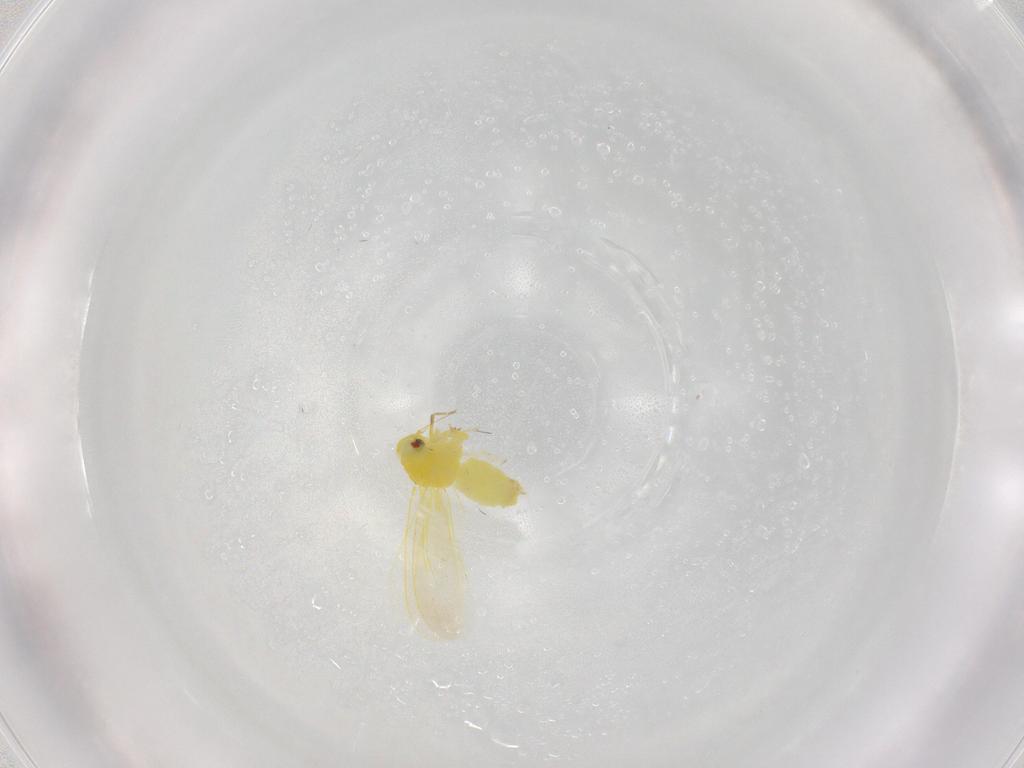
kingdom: Animalia
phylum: Arthropoda
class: Insecta
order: Hemiptera
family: Aleyrodidae
